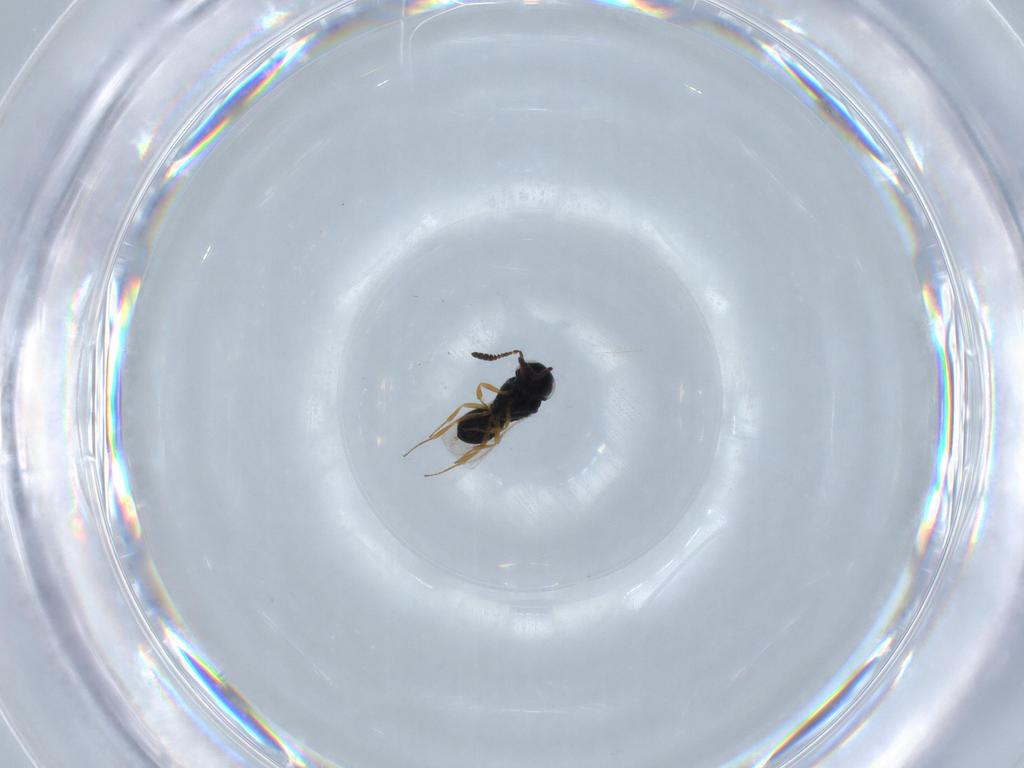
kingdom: Animalia
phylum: Arthropoda
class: Insecta
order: Hymenoptera
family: Scelionidae
